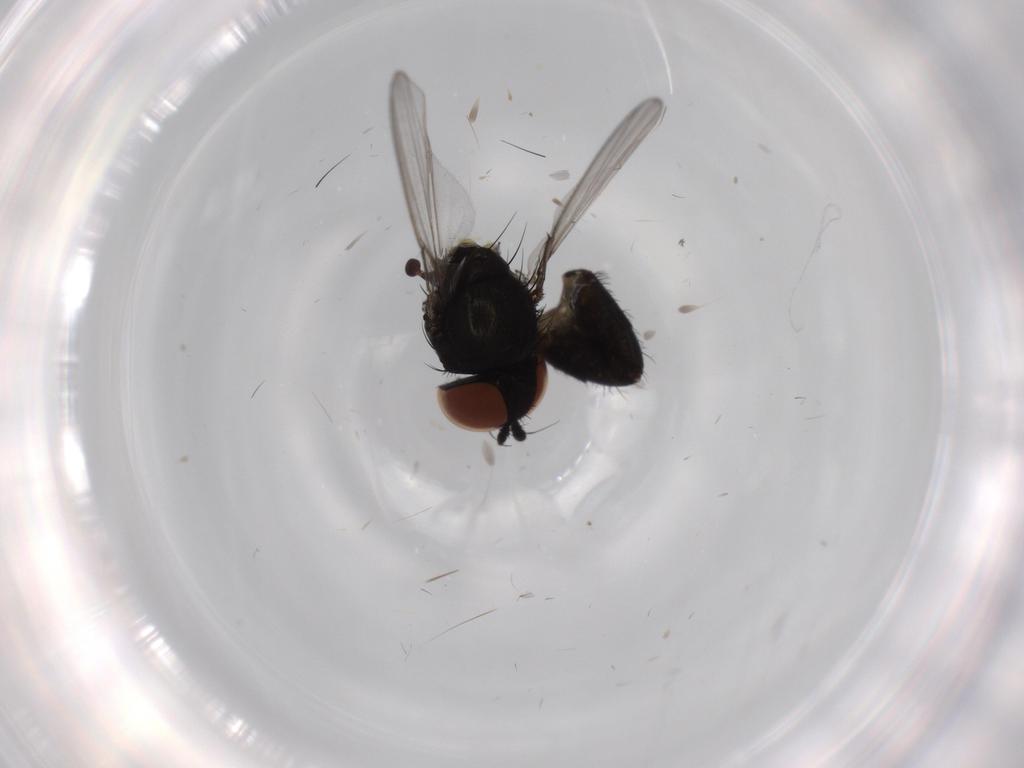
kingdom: Animalia
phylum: Arthropoda
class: Insecta
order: Diptera
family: Dolichopodidae
